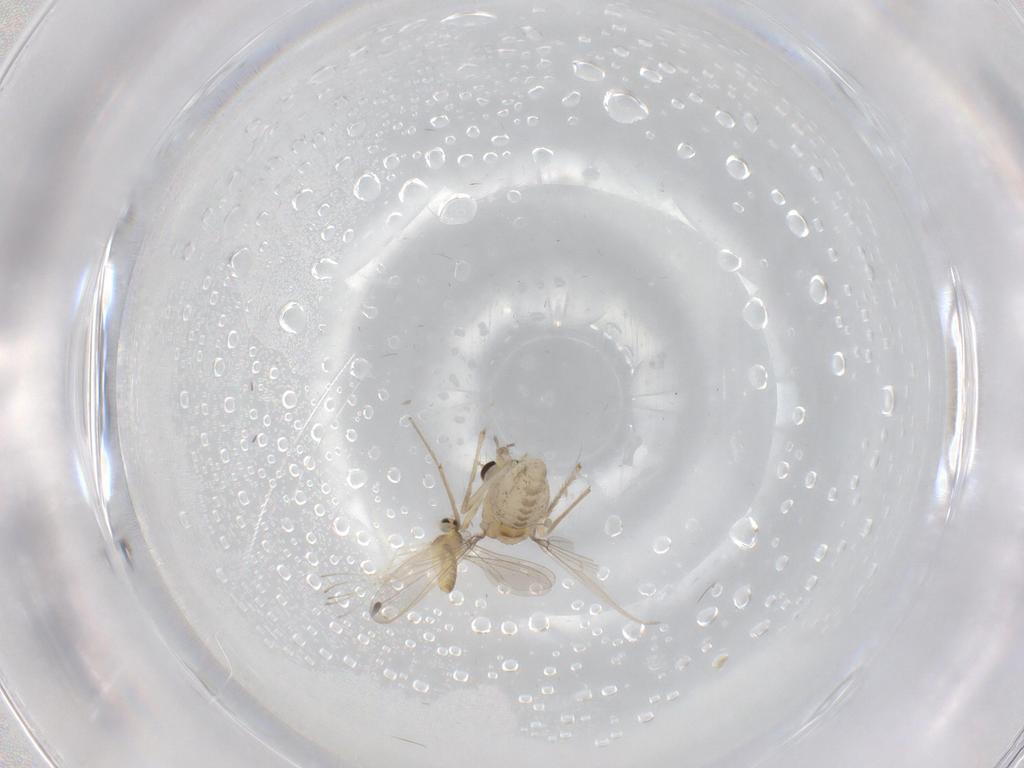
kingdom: Animalia
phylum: Arthropoda
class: Insecta
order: Diptera
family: Chironomidae
